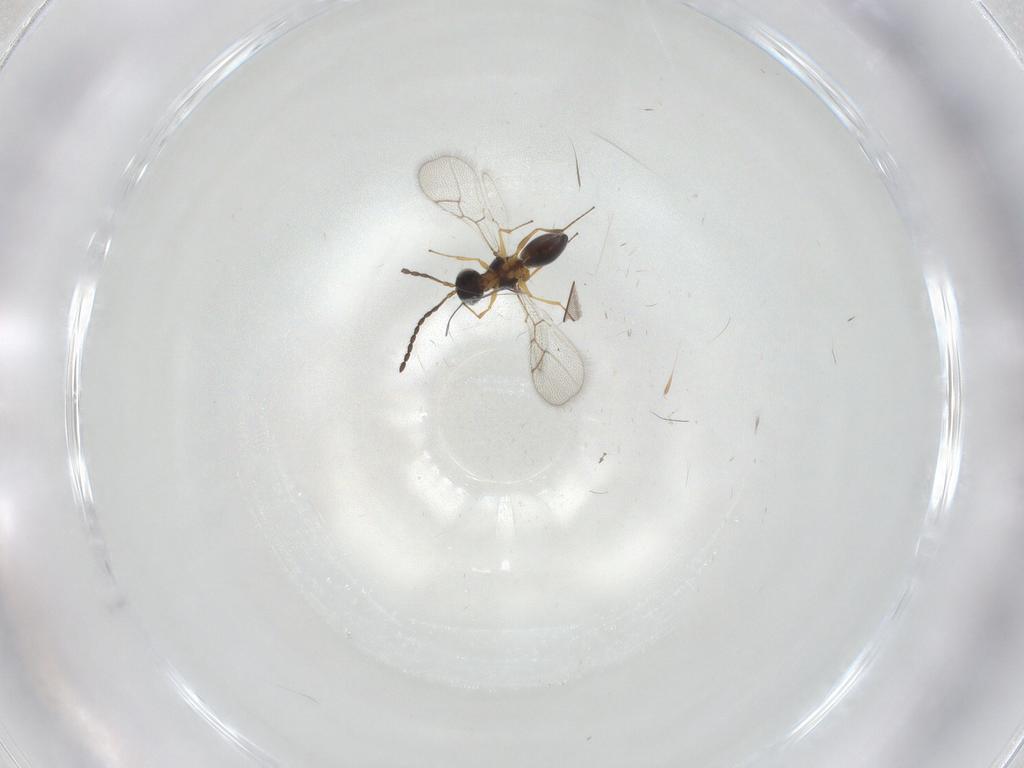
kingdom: Animalia
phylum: Arthropoda
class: Insecta
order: Hymenoptera
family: Figitidae
